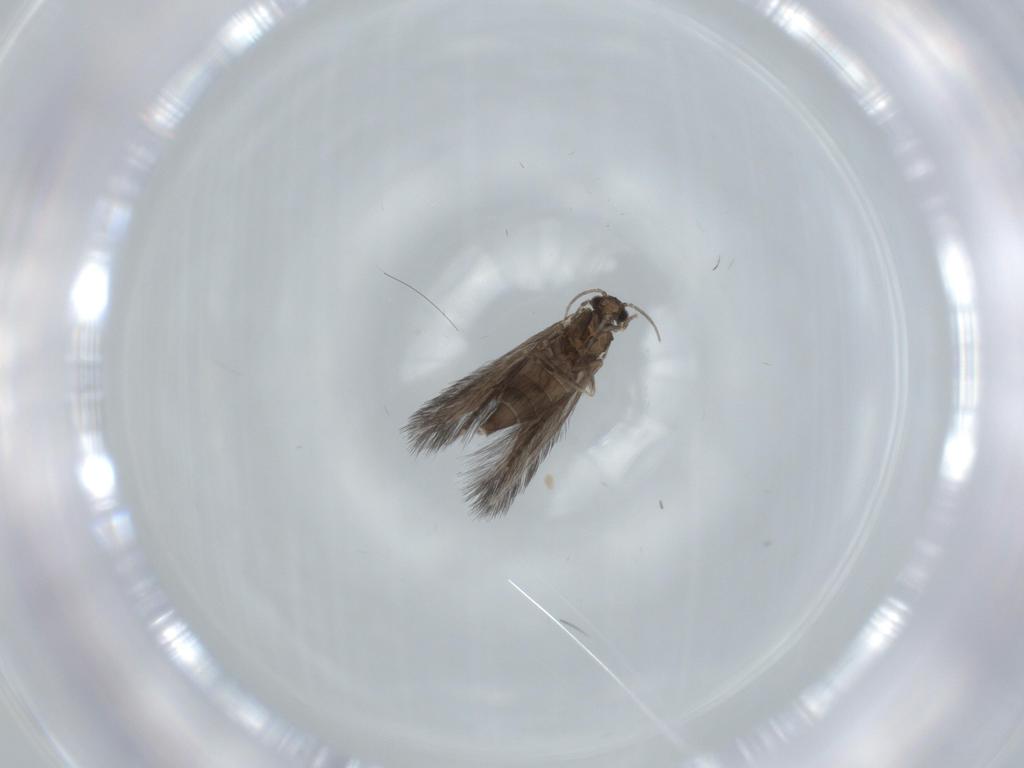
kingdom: Animalia
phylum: Arthropoda
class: Insecta
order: Trichoptera
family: Hydroptilidae
